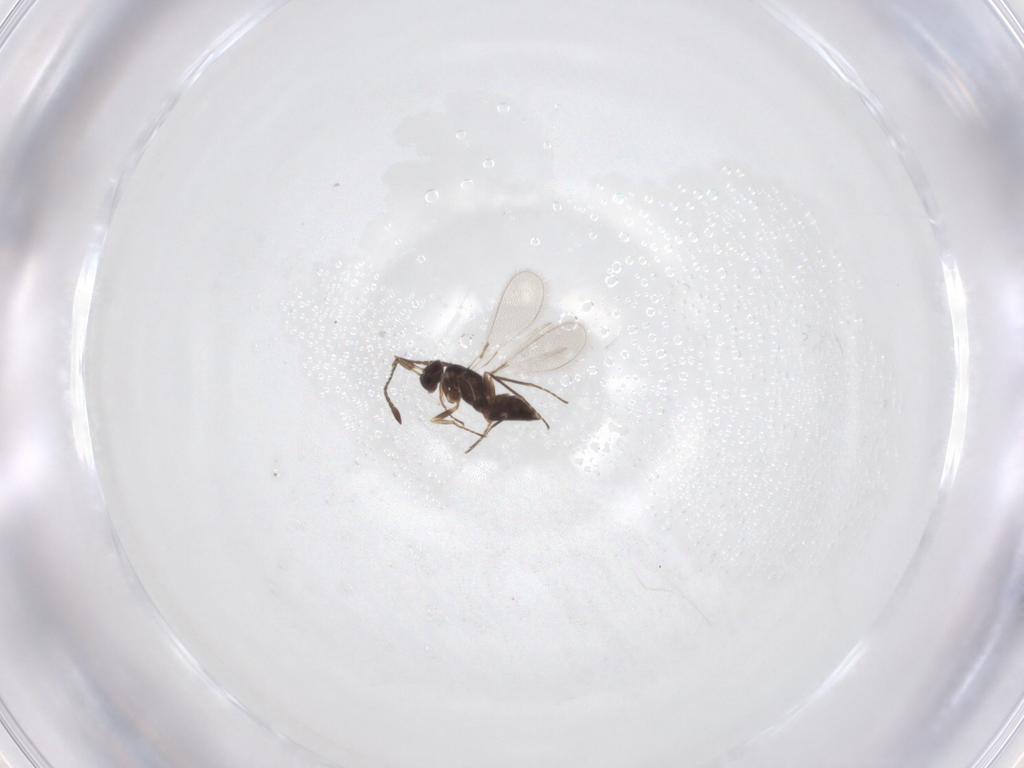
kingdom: Animalia
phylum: Arthropoda
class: Insecta
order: Hymenoptera
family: Mymaridae
